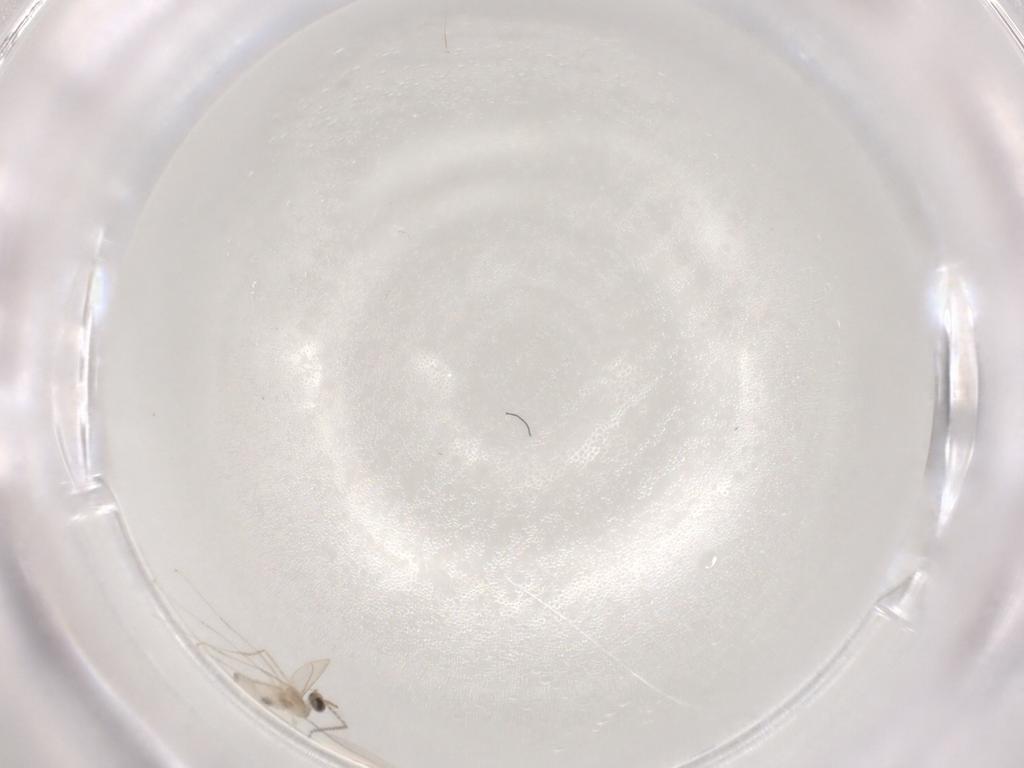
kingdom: Animalia
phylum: Arthropoda
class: Insecta
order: Diptera
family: Cecidomyiidae
